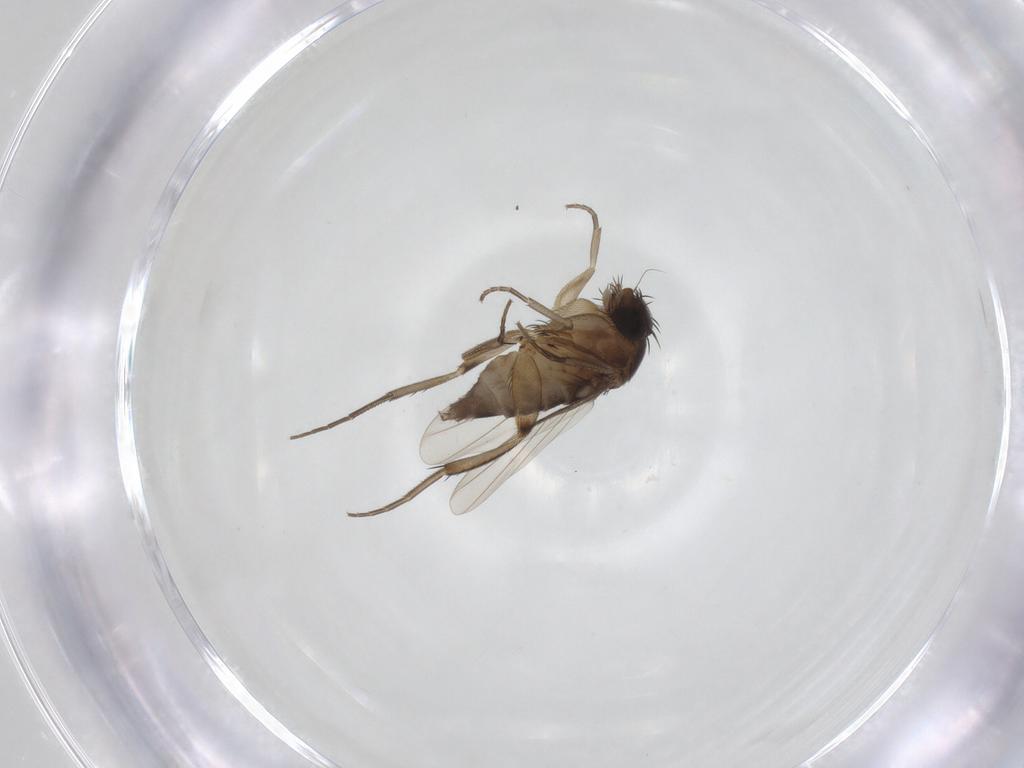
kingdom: Animalia
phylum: Arthropoda
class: Insecta
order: Diptera
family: Phoridae
